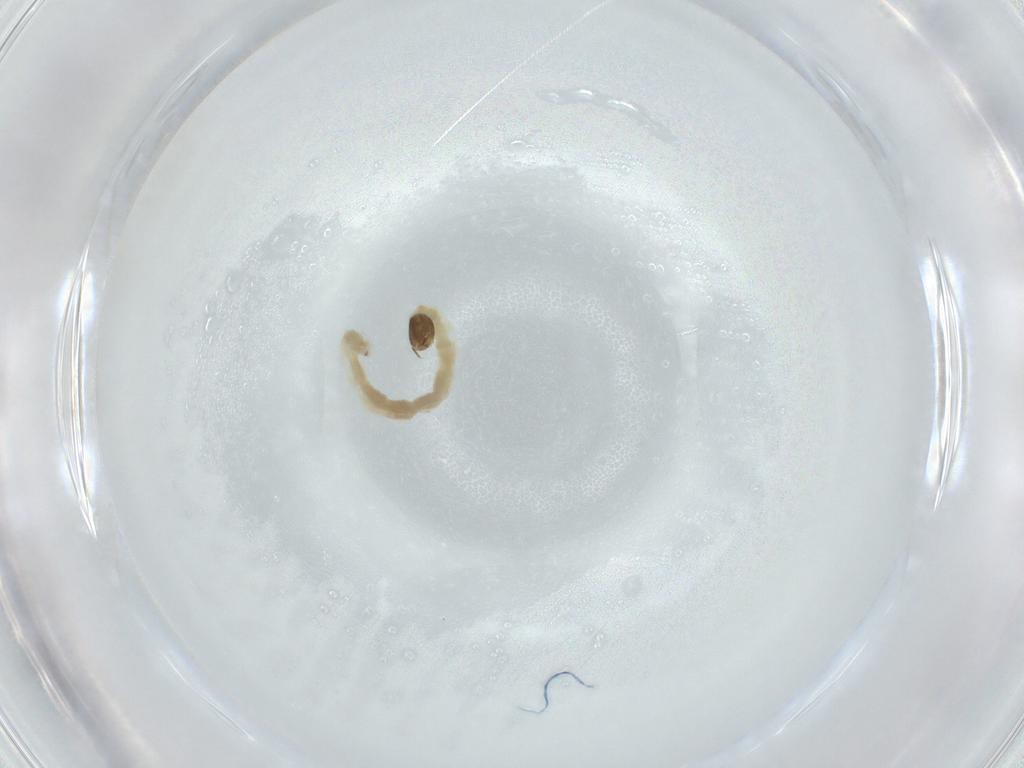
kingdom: Animalia
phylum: Arthropoda
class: Insecta
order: Diptera
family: Chironomidae
